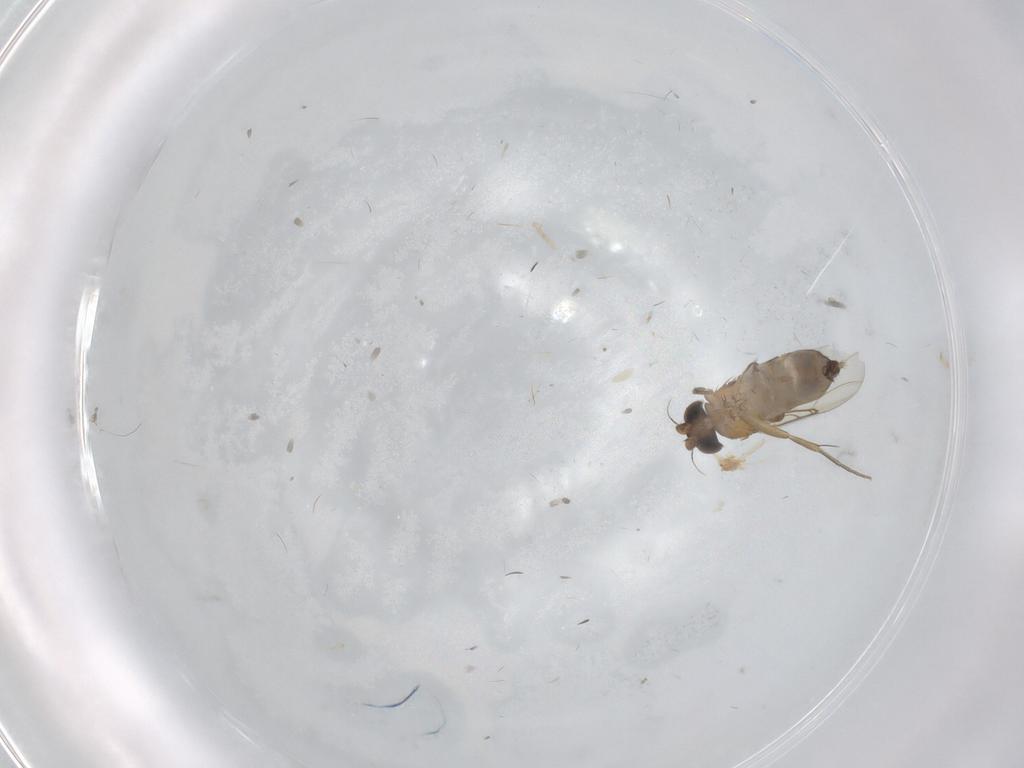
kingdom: Animalia
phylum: Arthropoda
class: Insecta
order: Diptera
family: Phoridae
